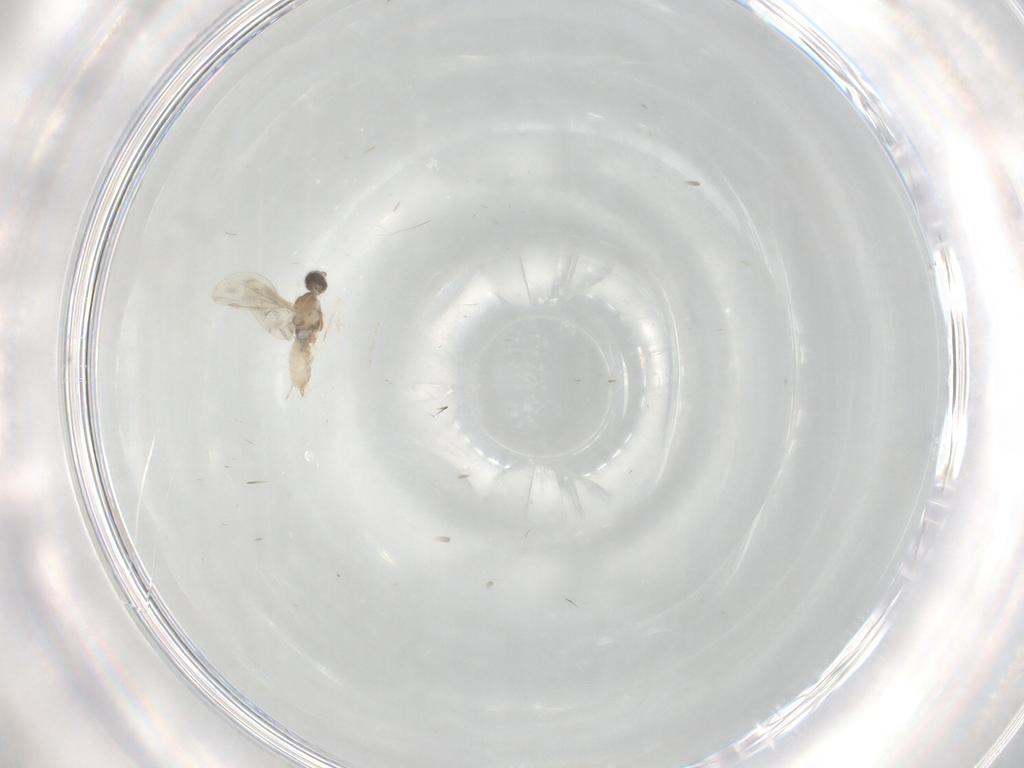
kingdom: Animalia
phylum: Arthropoda
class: Insecta
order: Diptera
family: Cecidomyiidae
